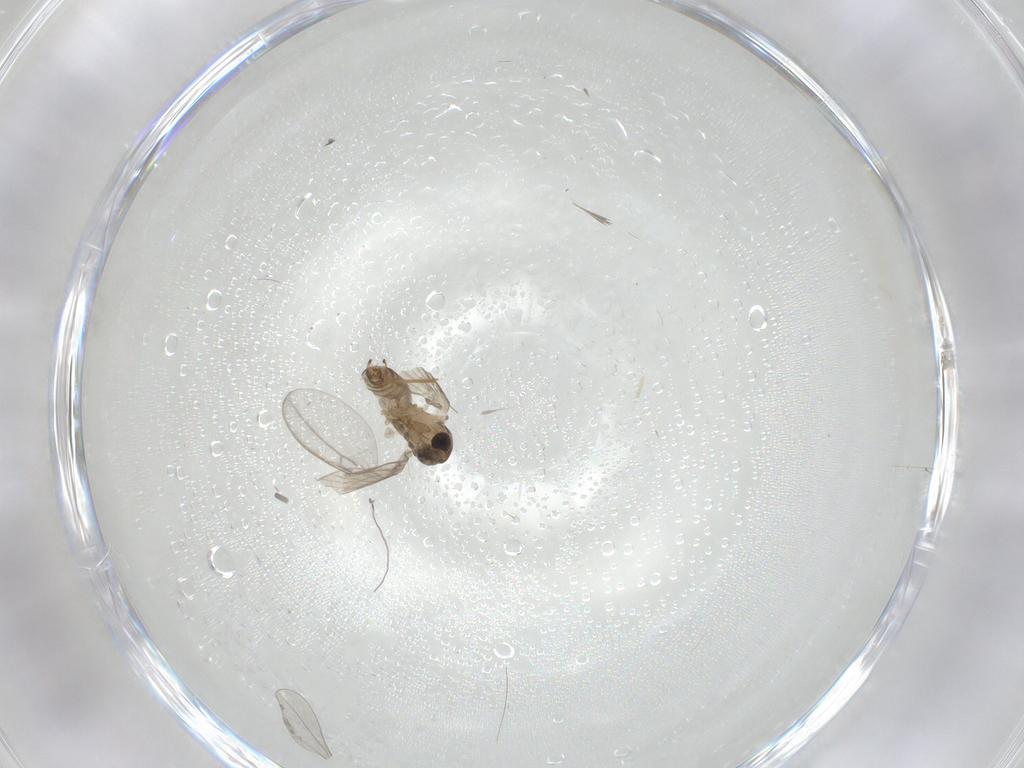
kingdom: Animalia
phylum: Arthropoda
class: Insecta
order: Diptera
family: Psychodidae
